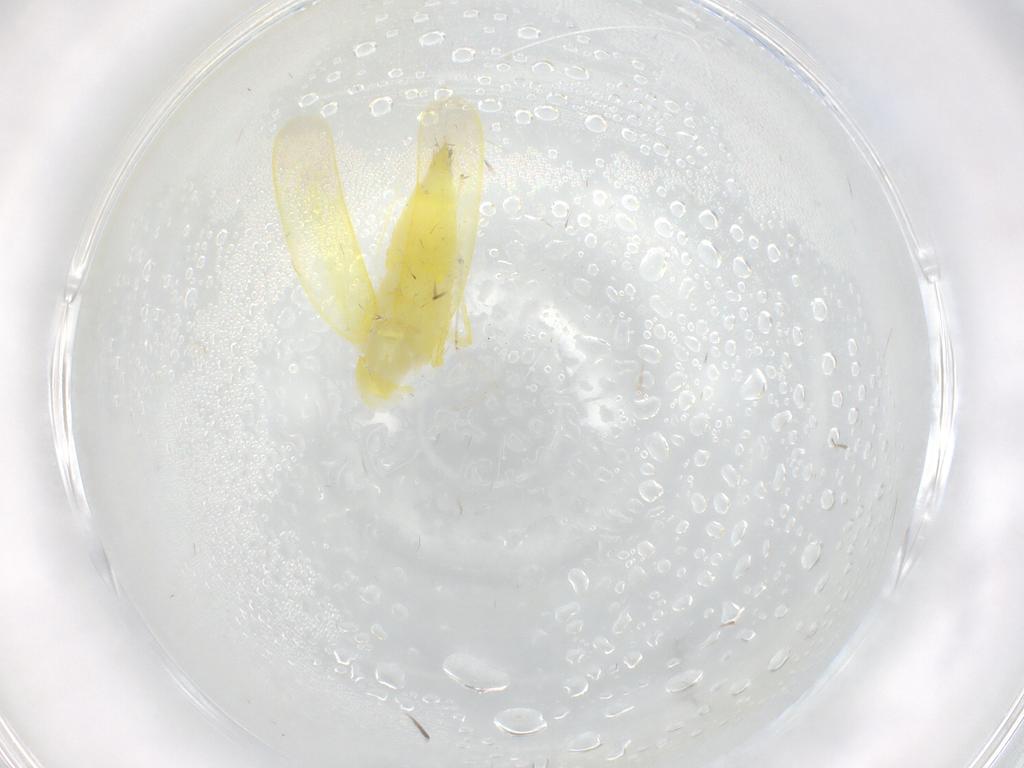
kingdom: Animalia
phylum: Arthropoda
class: Insecta
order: Hemiptera
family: Cicadellidae
